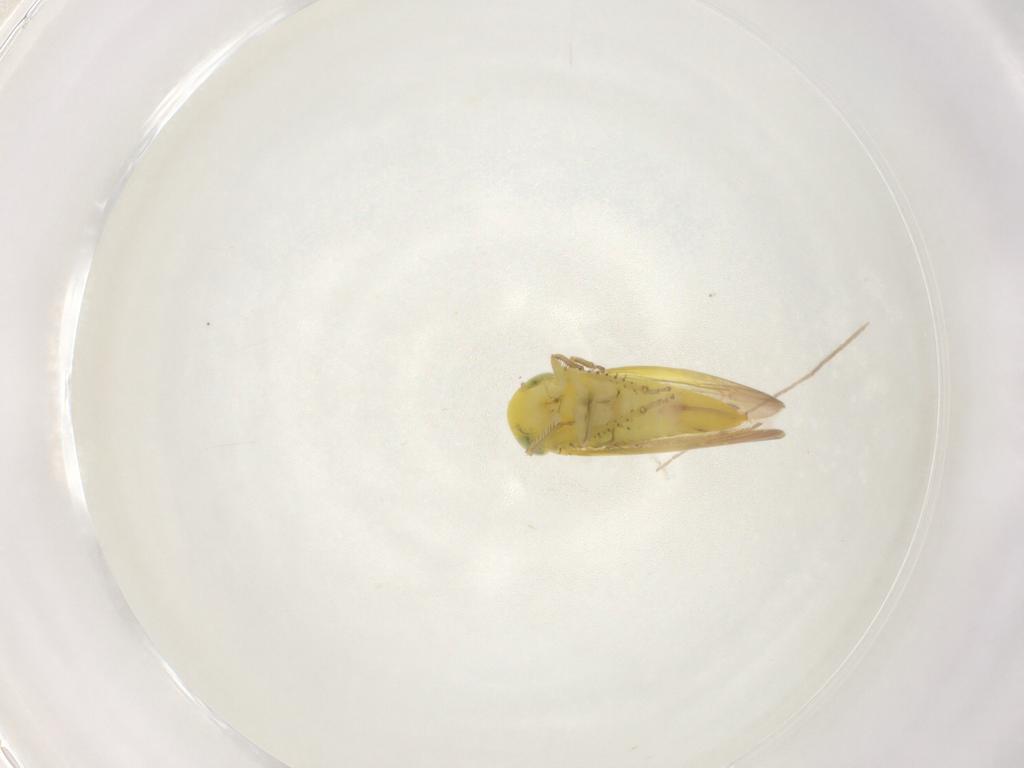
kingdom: Animalia
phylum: Arthropoda
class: Insecta
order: Hemiptera
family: Cicadellidae
